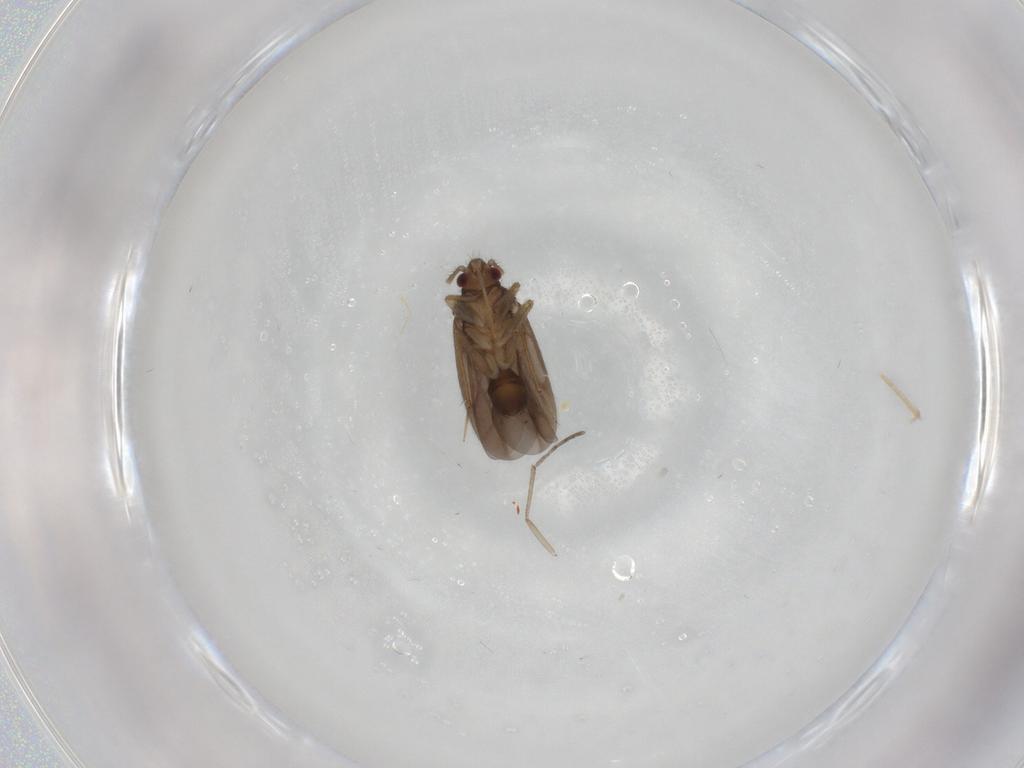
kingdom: Animalia
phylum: Arthropoda
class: Insecta
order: Hemiptera
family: Ceratocombidae
